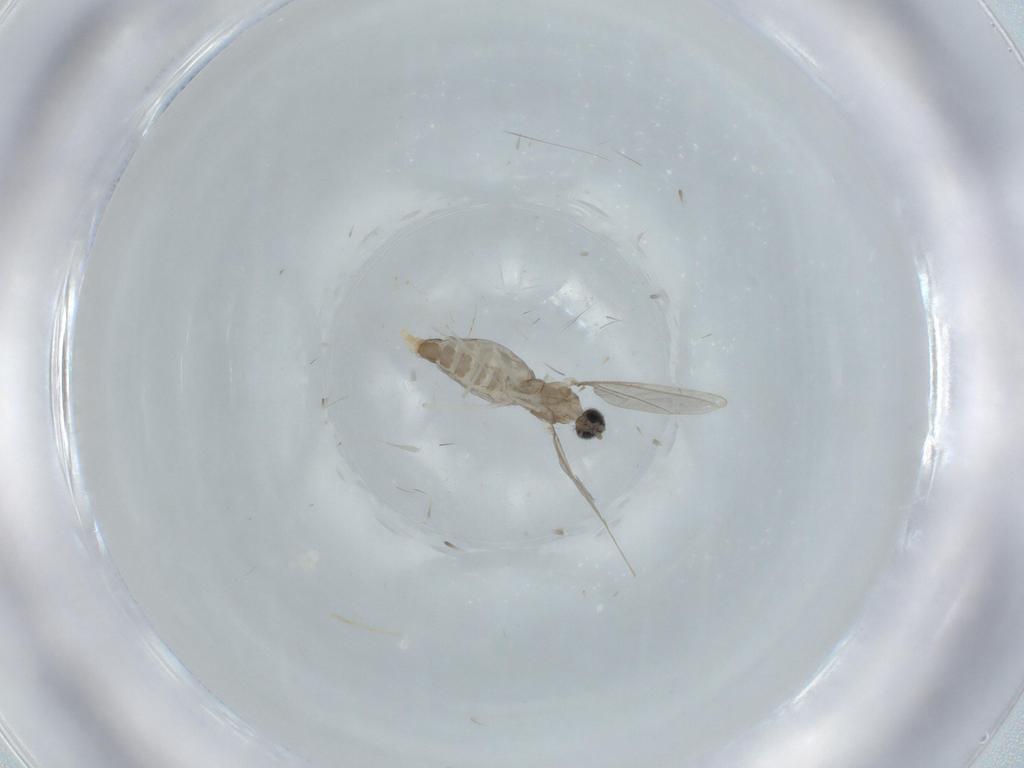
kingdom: Animalia
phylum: Arthropoda
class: Insecta
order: Diptera
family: Cecidomyiidae
